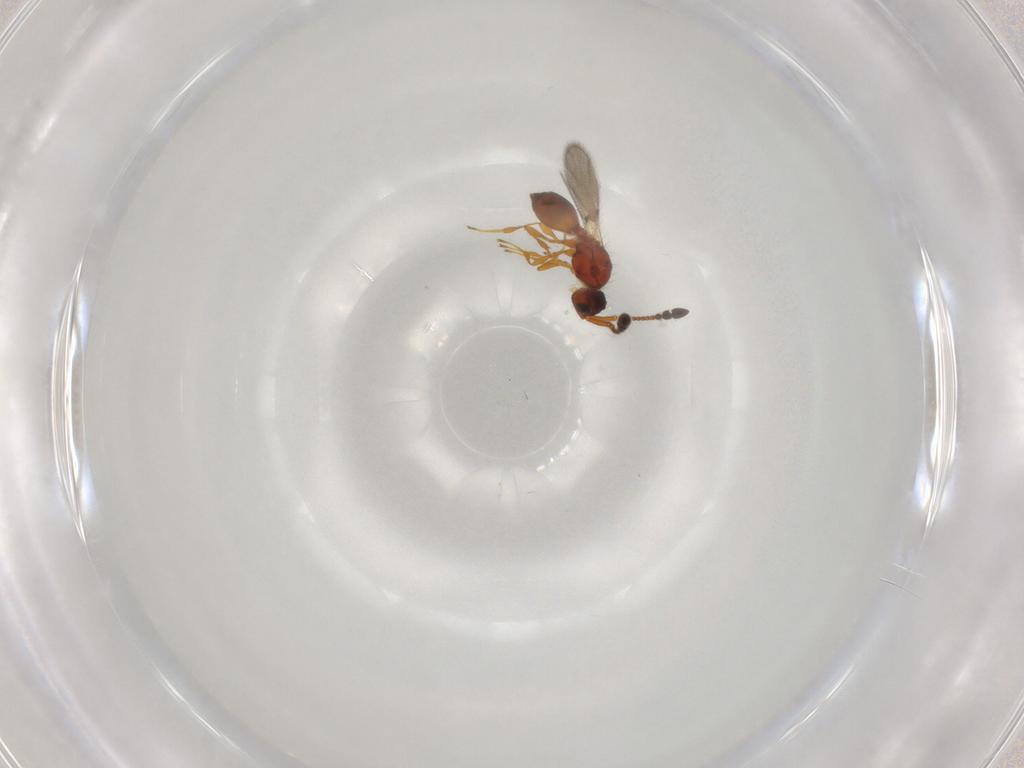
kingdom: Animalia
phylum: Arthropoda
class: Insecta
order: Hymenoptera
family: Diapriidae
